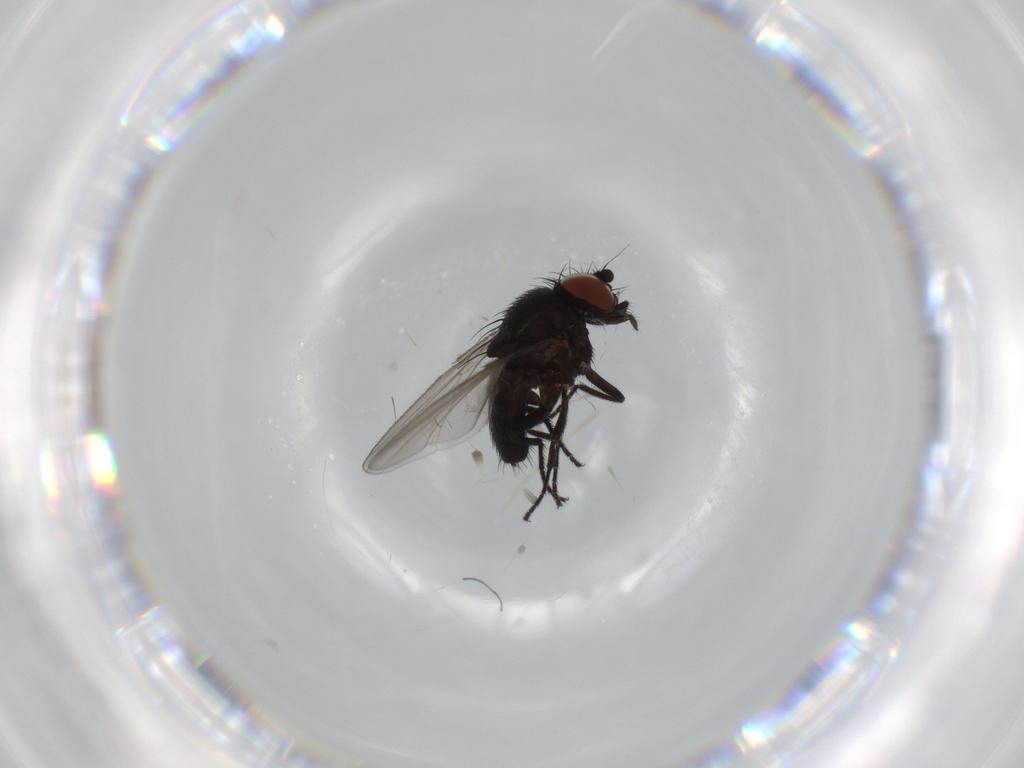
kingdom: Animalia
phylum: Arthropoda
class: Insecta
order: Diptera
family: Milichiidae
